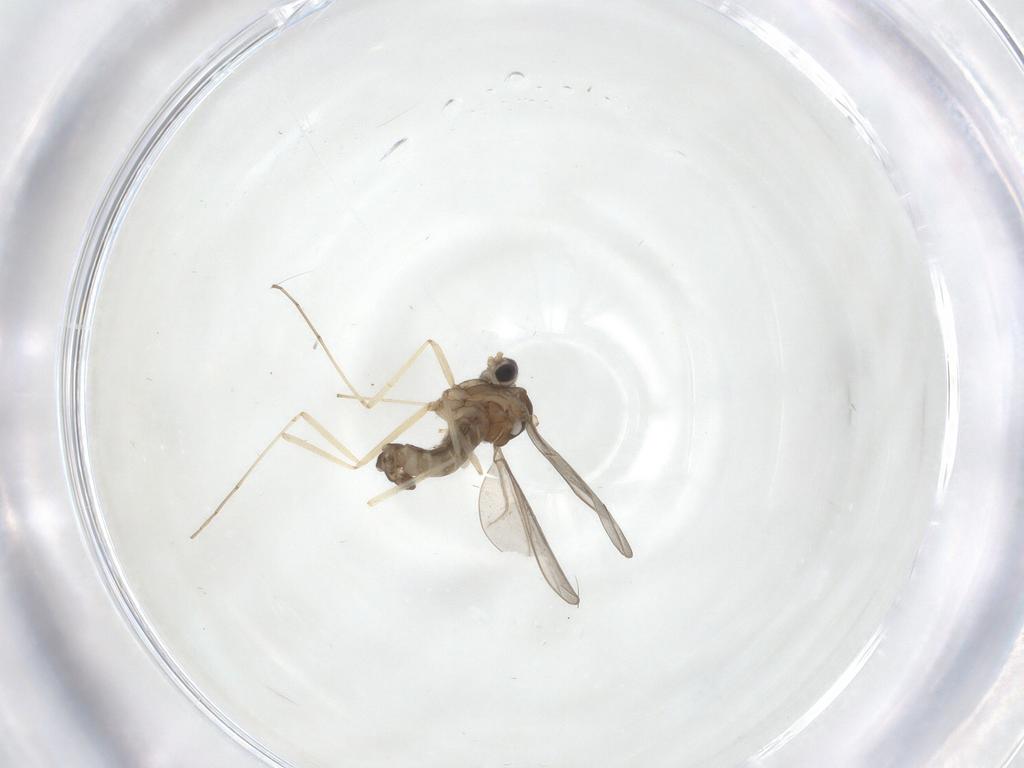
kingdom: Animalia
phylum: Arthropoda
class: Insecta
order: Diptera
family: Cecidomyiidae
